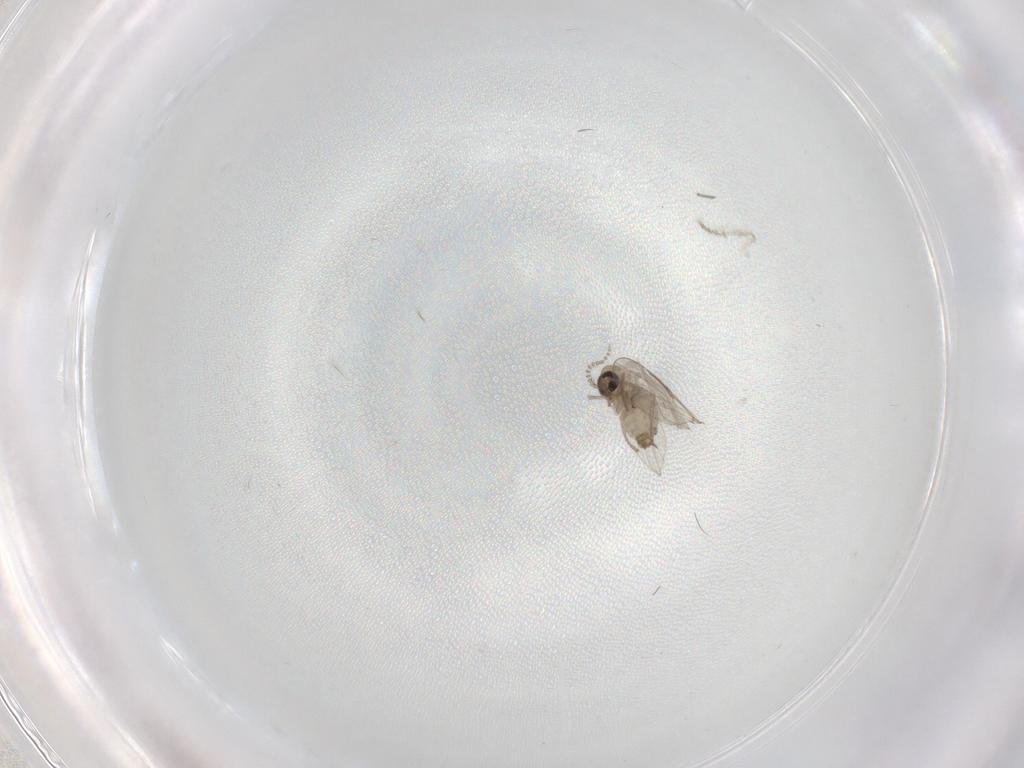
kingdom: Animalia
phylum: Arthropoda
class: Insecta
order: Diptera
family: Psychodidae
